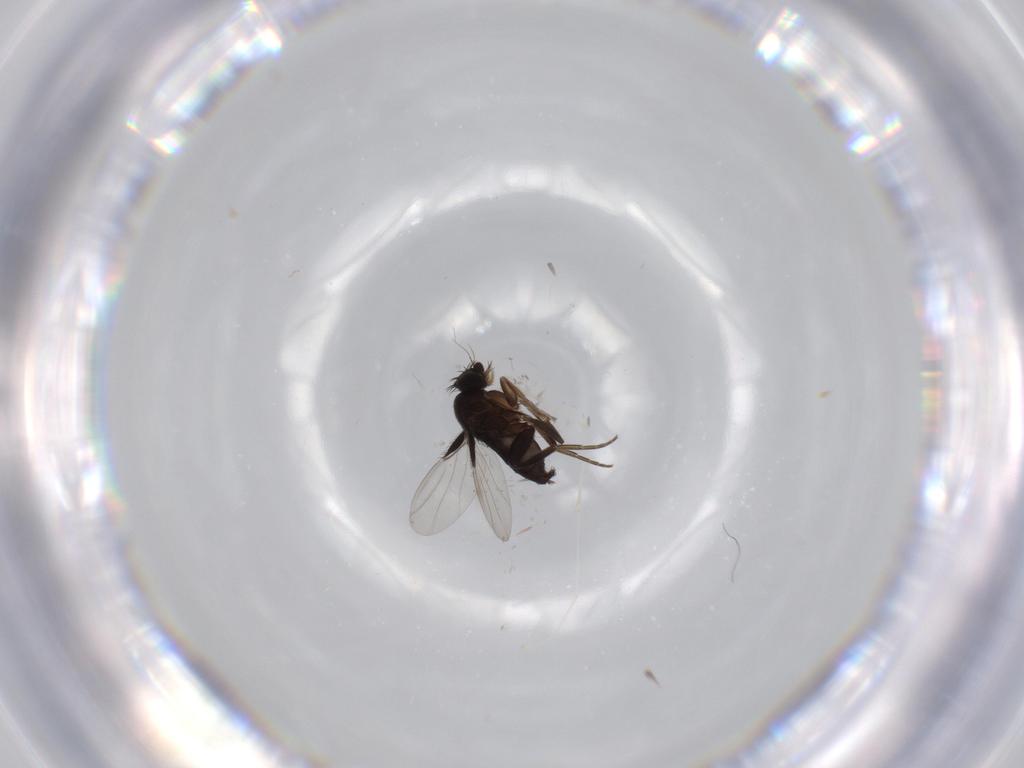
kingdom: Animalia
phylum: Arthropoda
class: Insecta
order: Diptera
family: Phoridae
